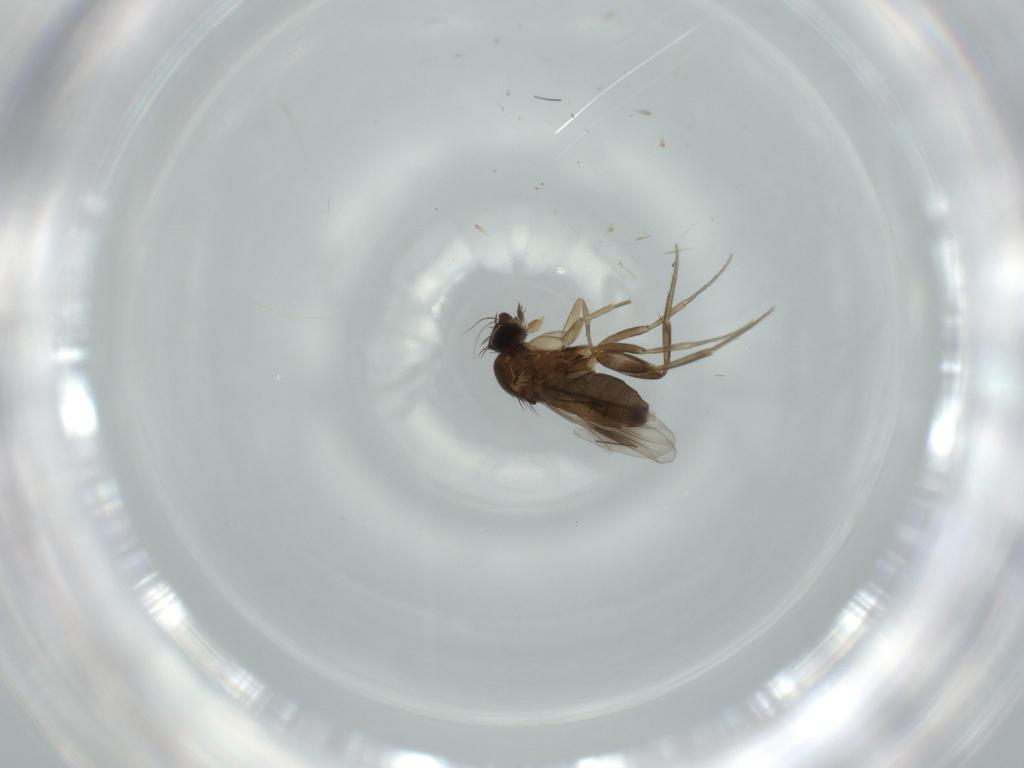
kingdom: Animalia
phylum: Arthropoda
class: Insecta
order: Diptera
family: Phoridae
